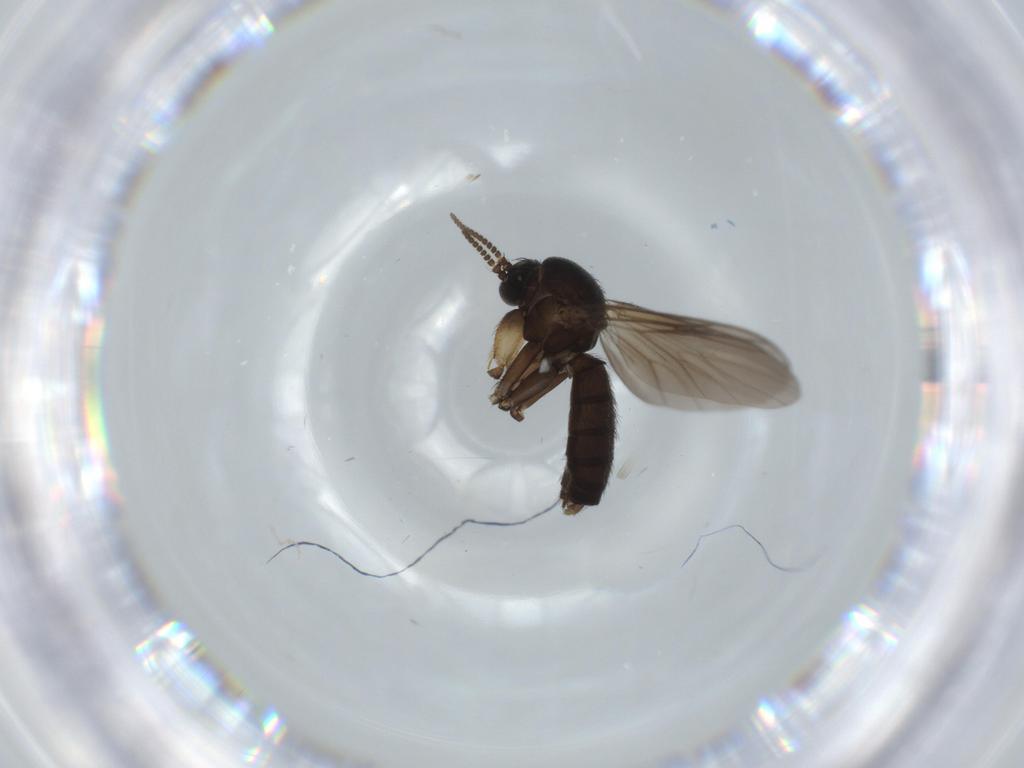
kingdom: Animalia
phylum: Arthropoda
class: Insecta
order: Diptera
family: Mycetophilidae
